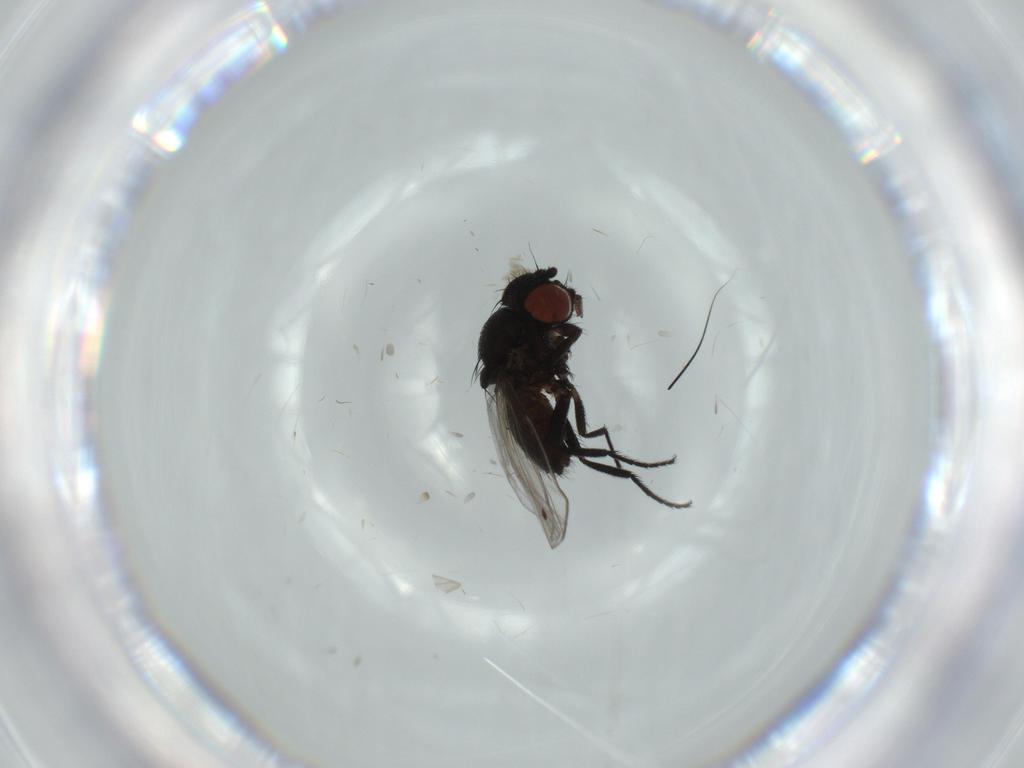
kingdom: Animalia
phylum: Arthropoda
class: Insecta
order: Diptera
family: Milichiidae
